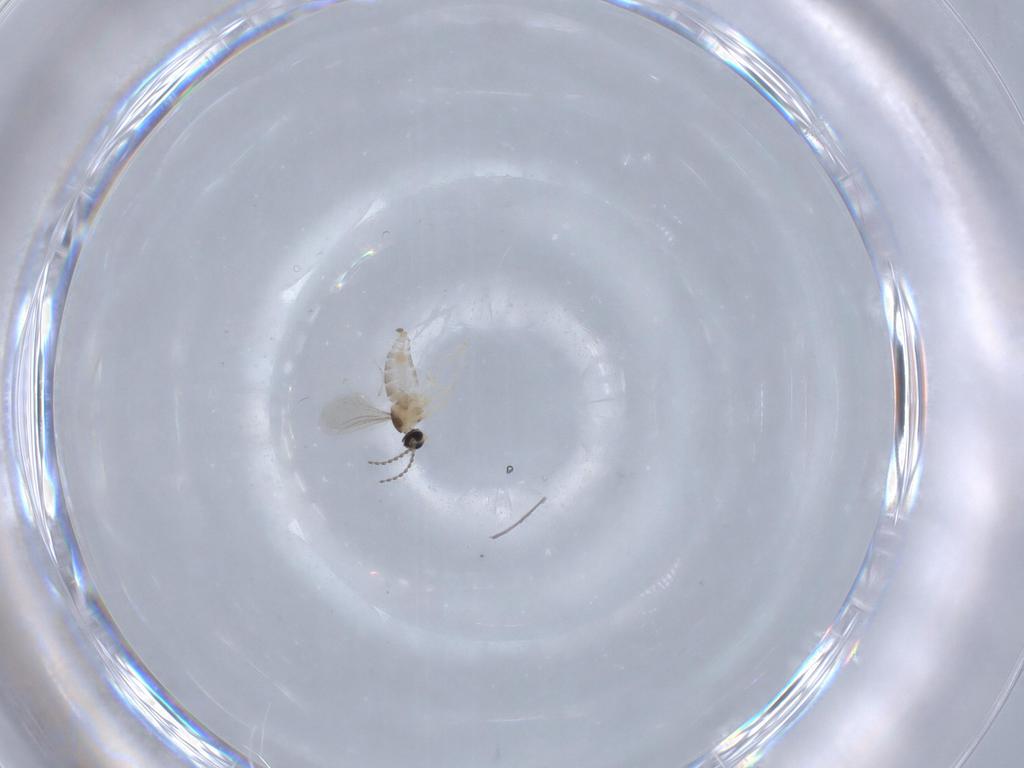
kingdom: Animalia
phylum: Arthropoda
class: Insecta
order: Diptera
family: Cecidomyiidae
